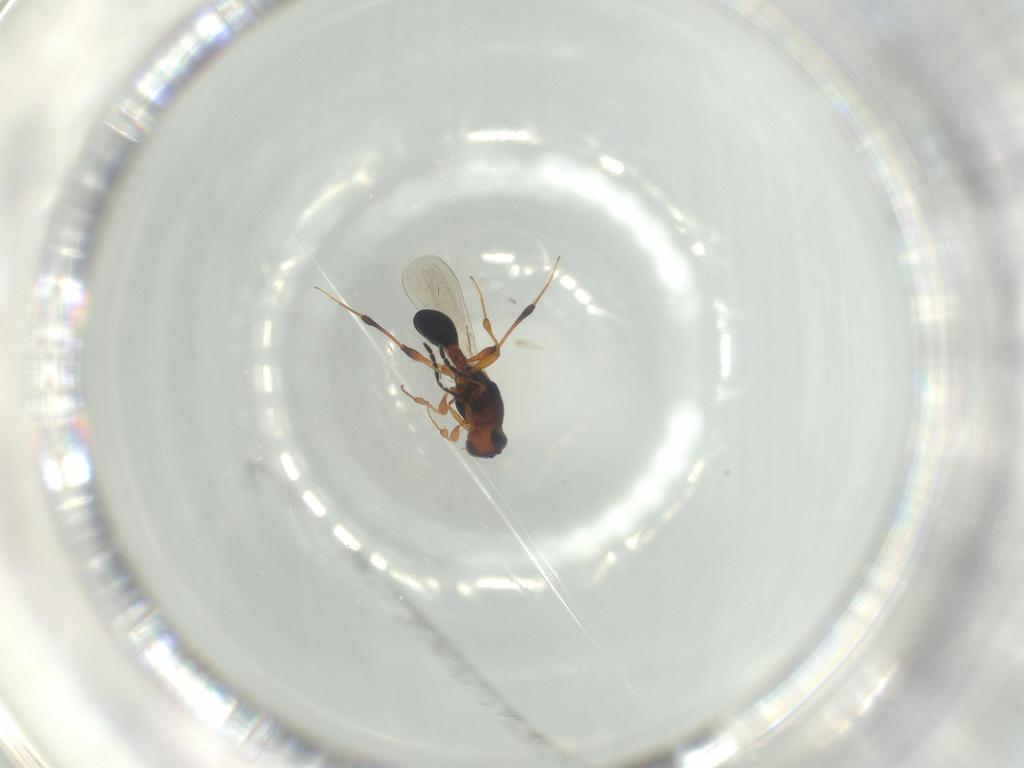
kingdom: Animalia
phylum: Arthropoda
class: Insecta
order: Hymenoptera
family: Platygastridae
